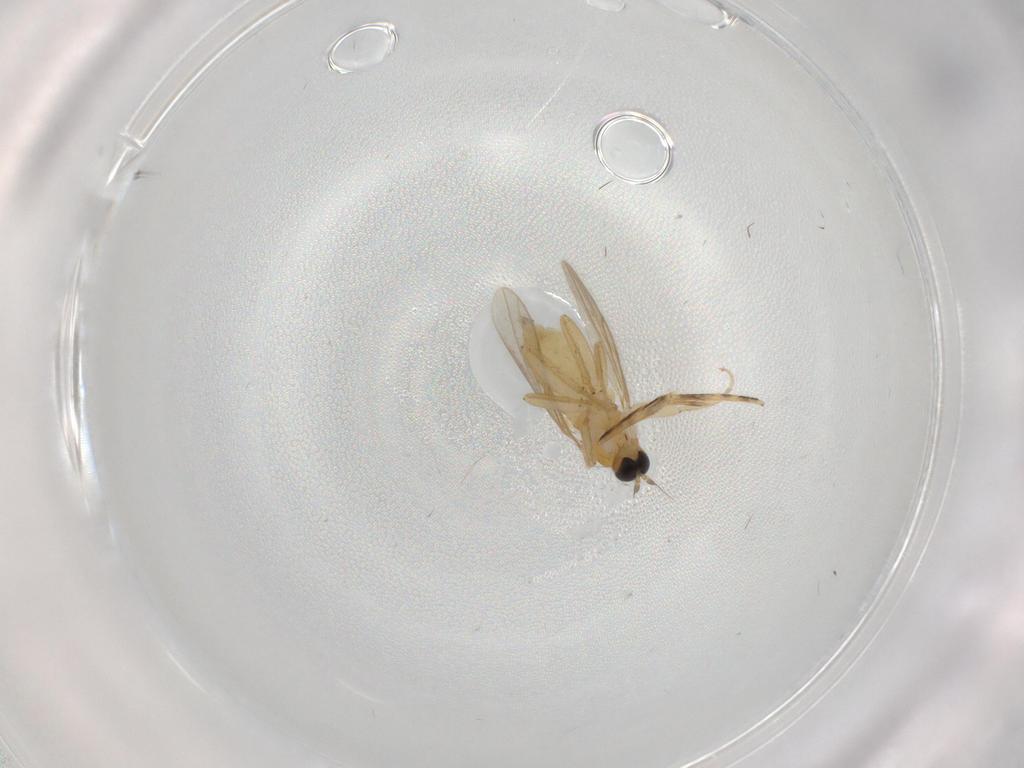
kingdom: Animalia
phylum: Arthropoda
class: Insecta
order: Diptera
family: Hybotidae
